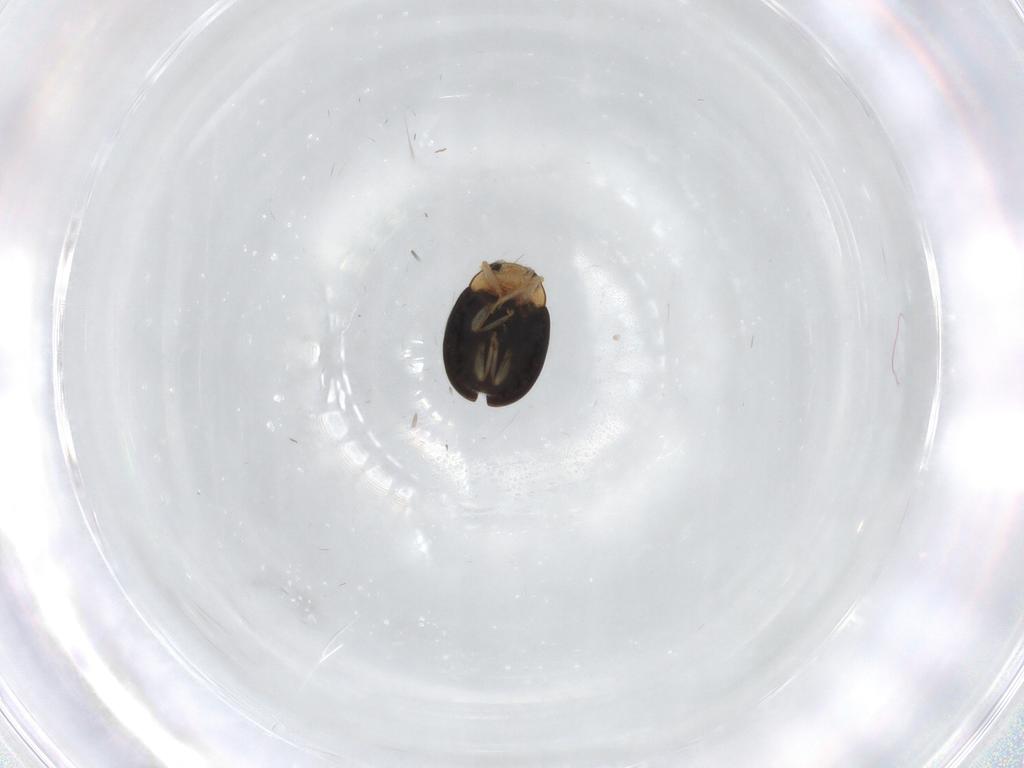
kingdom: Animalia
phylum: Arthropoda
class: Insecta
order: Coleoptera
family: Coccinellidae
